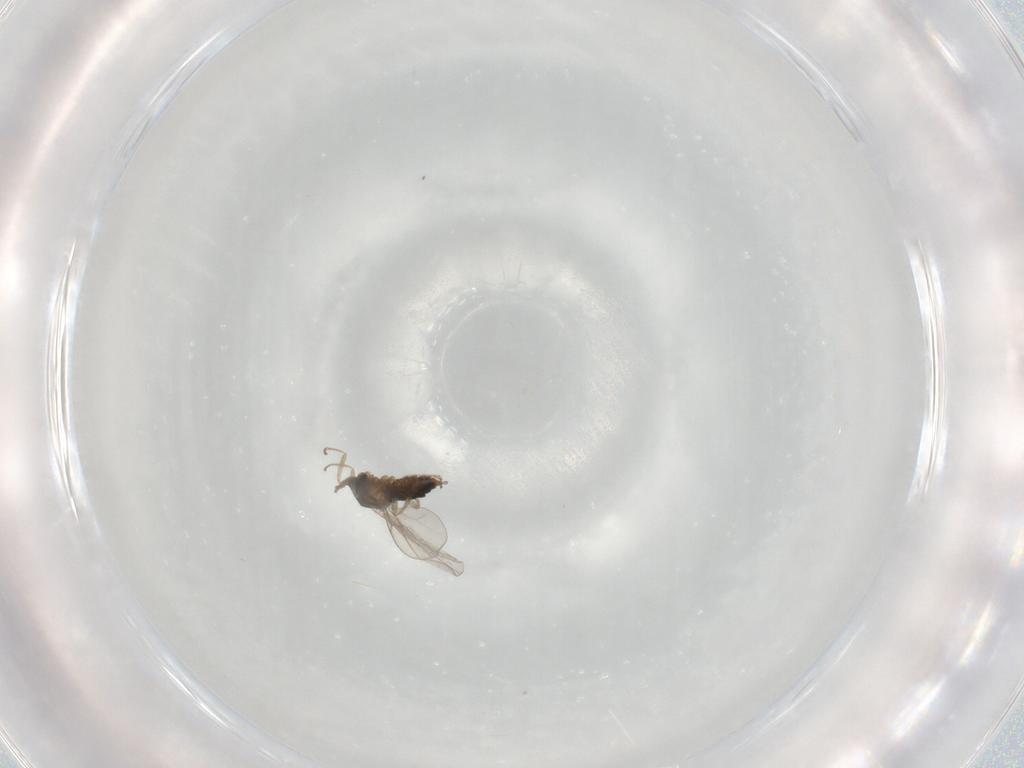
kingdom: Animalia
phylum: Arthropoda
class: Insecta
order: Diptera
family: Cecidomyiidae
